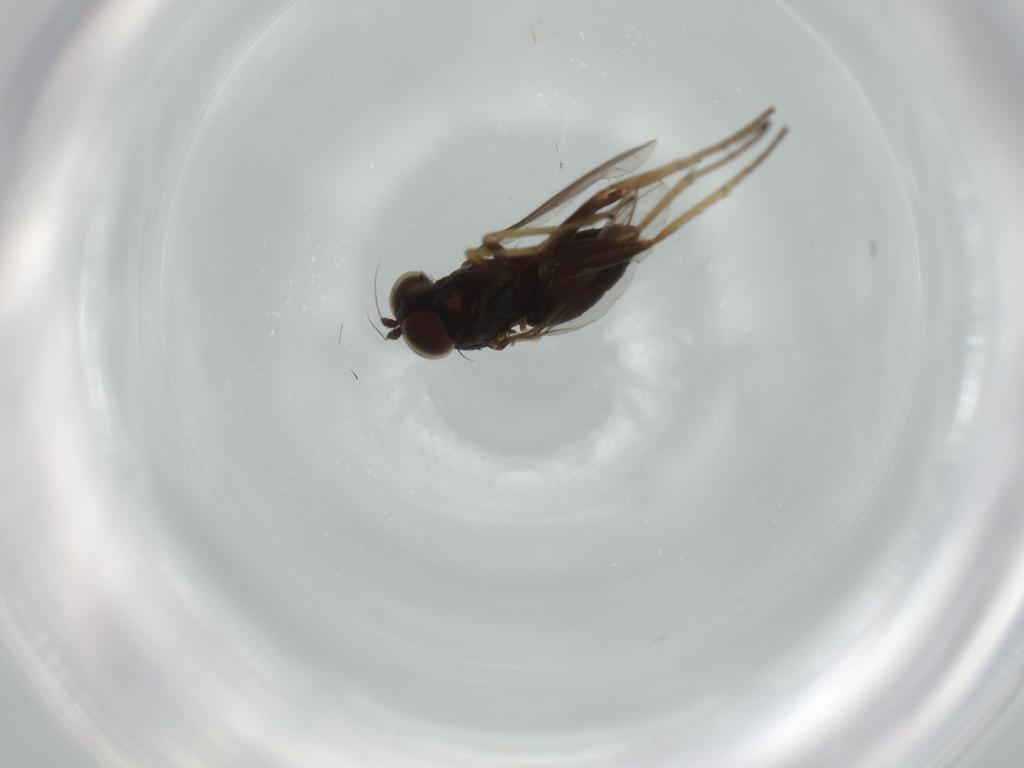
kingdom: Animalia
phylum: Arthropoda
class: Insecta
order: Diptera
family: Dolichopodidae
